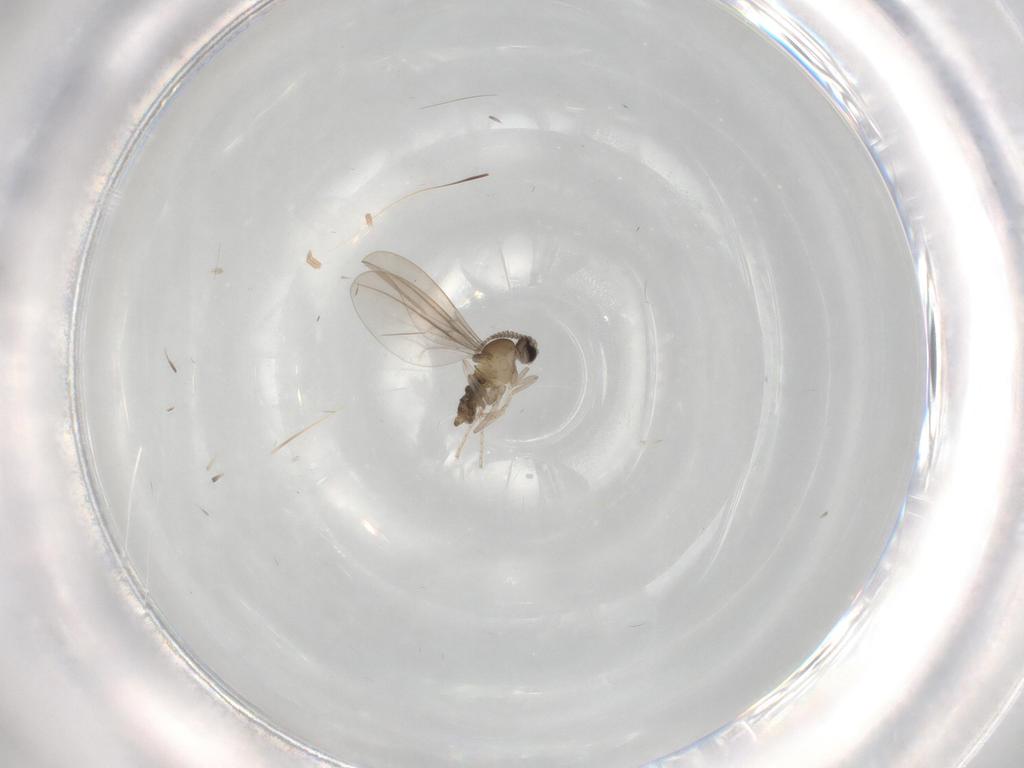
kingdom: Animalia
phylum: Arthropoda
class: Insecta
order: Diptera
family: Cecidomyiidae
